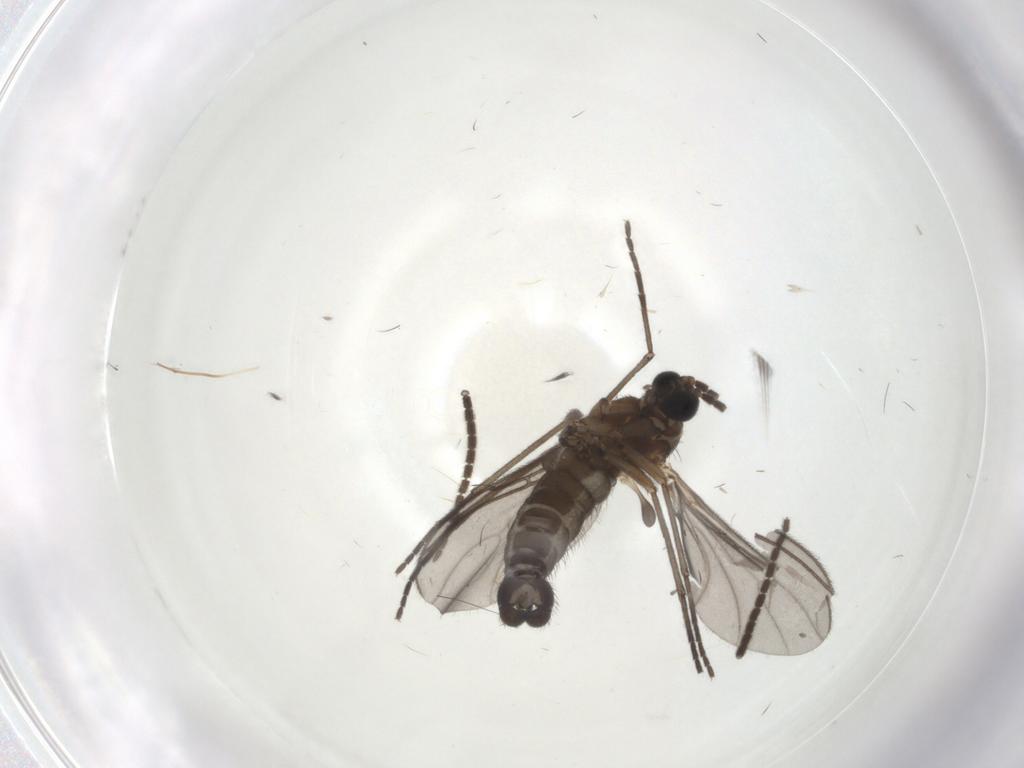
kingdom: Animalia
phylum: Arthropoda
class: Insecta
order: Diptera
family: Sciaridae
